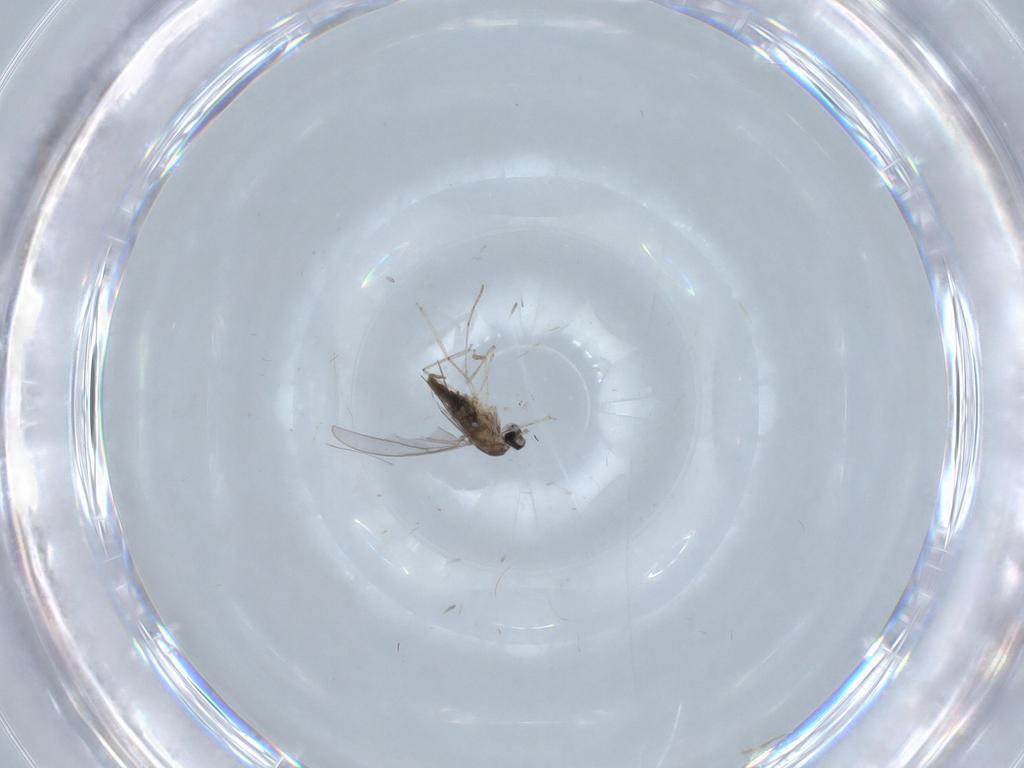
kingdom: Animalia
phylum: Arthropoda
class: Insecta
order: Diptera
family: Cecidomyiidae
